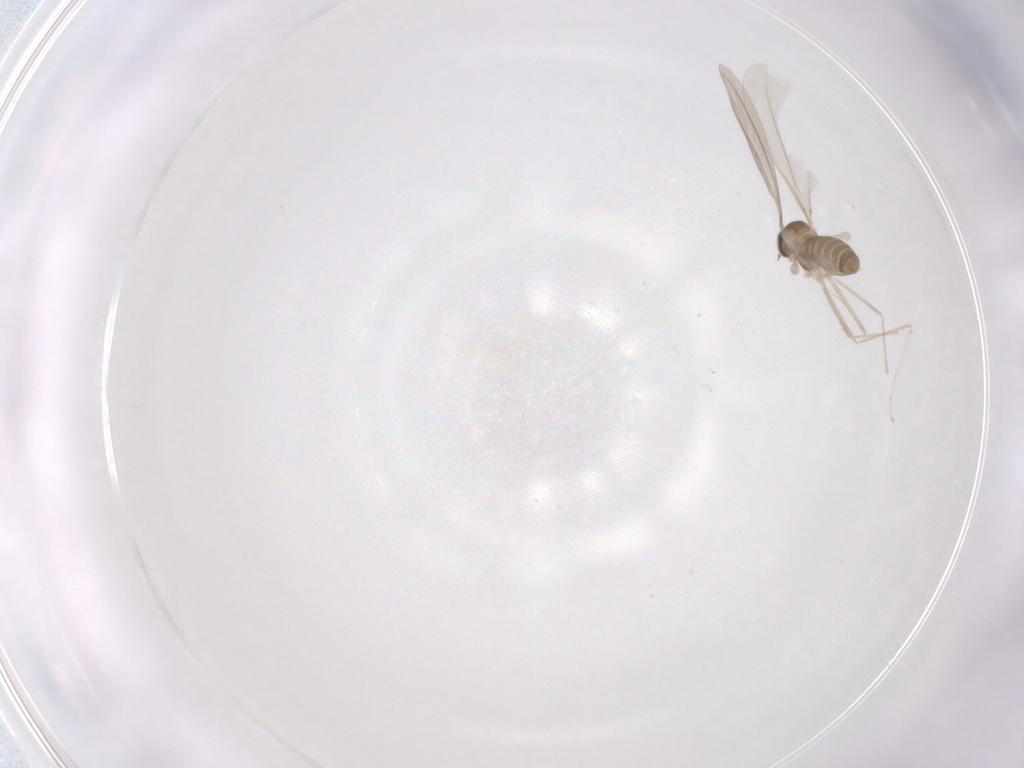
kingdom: Animalia
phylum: Arthropoda
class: Insecta
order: Diptera
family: Cecidomyiidae
